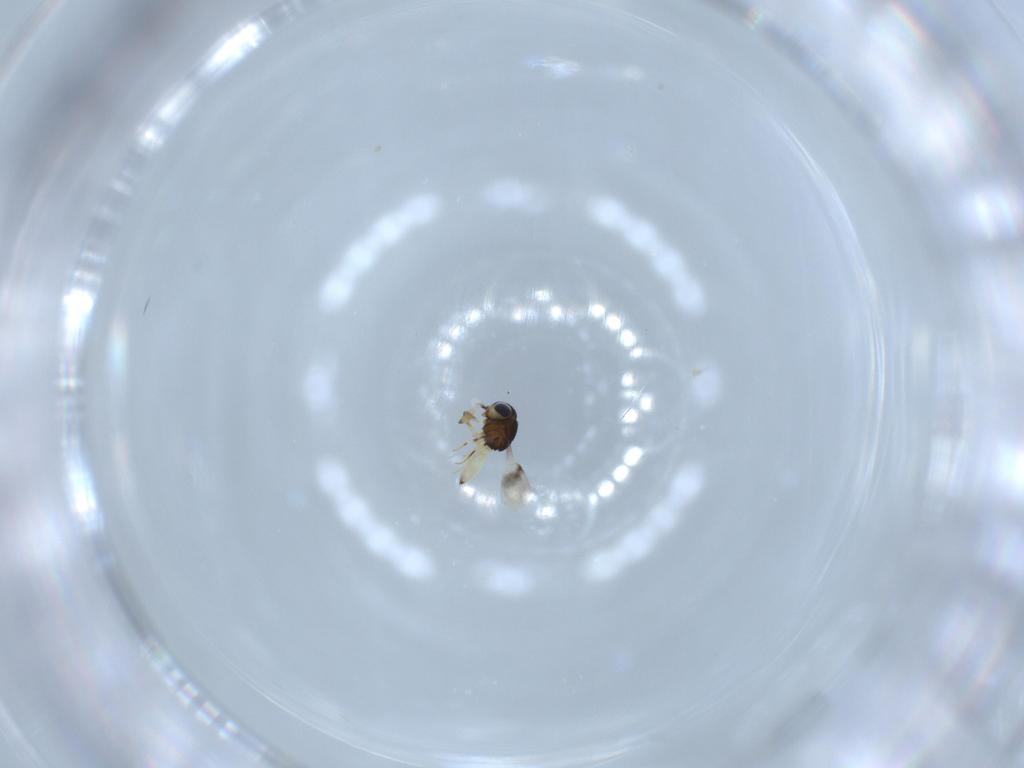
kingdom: Animalia
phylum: Arthropoda
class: Insecta
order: Hymenoptera
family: Scelionidae
